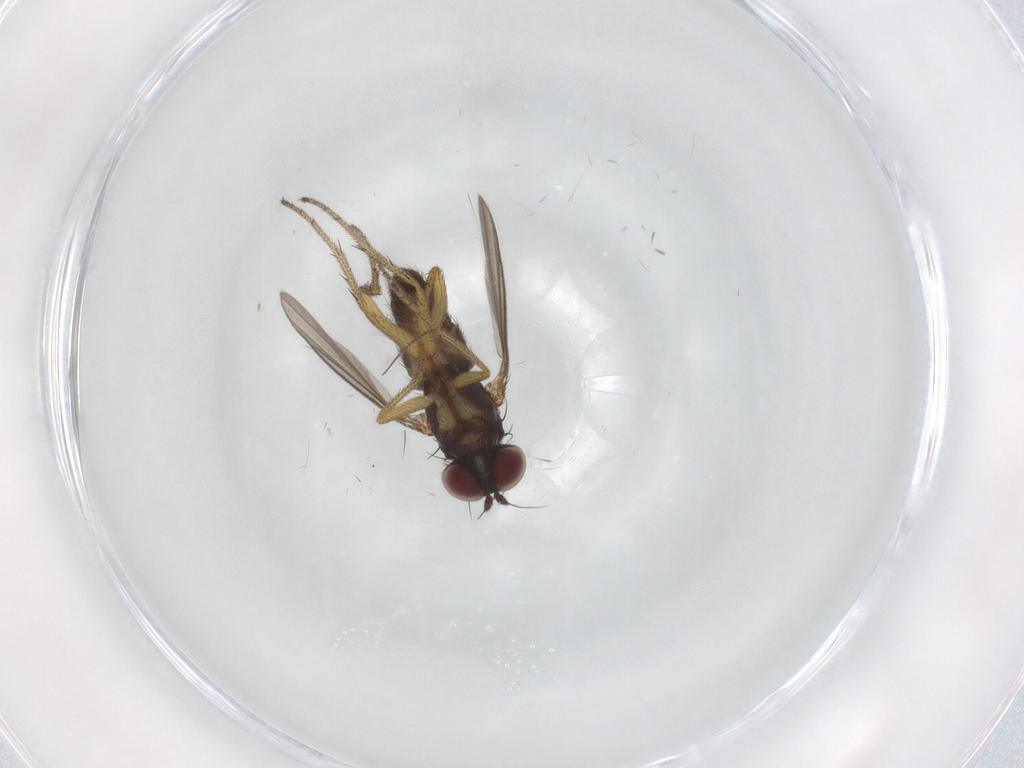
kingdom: Animalia
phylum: Arthropoda
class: Insecta
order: Diptera
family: Dolichopodidae
